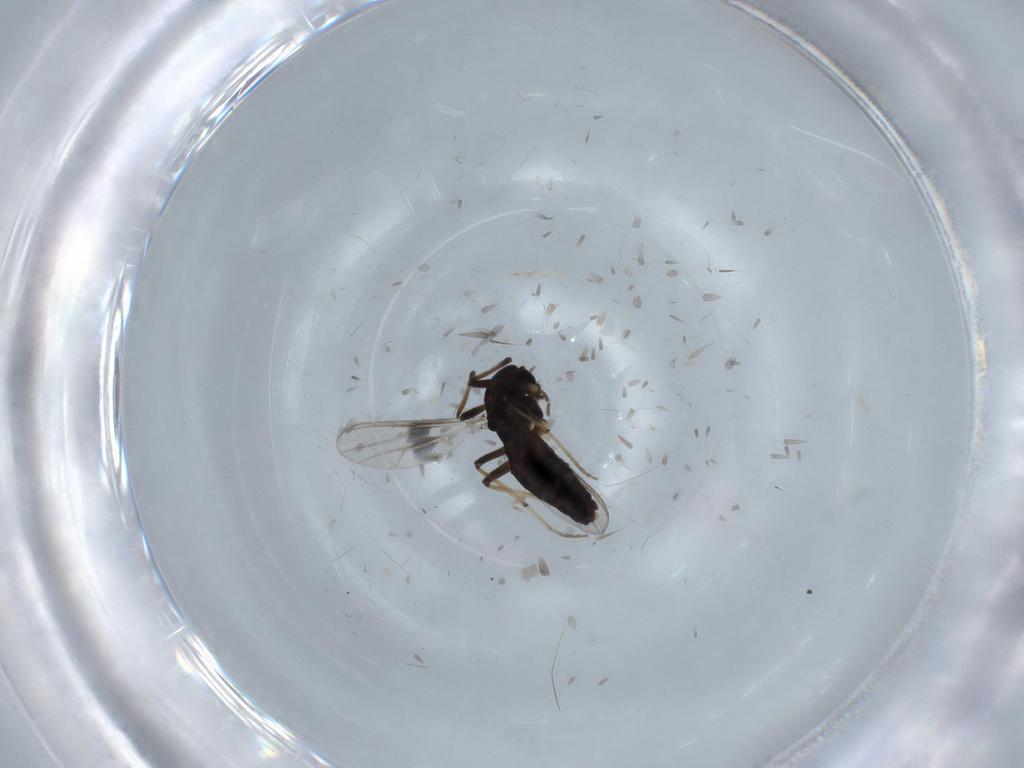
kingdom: Animalia
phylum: Arthropoda
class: Insecta
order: Diptera
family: Chironomidae
